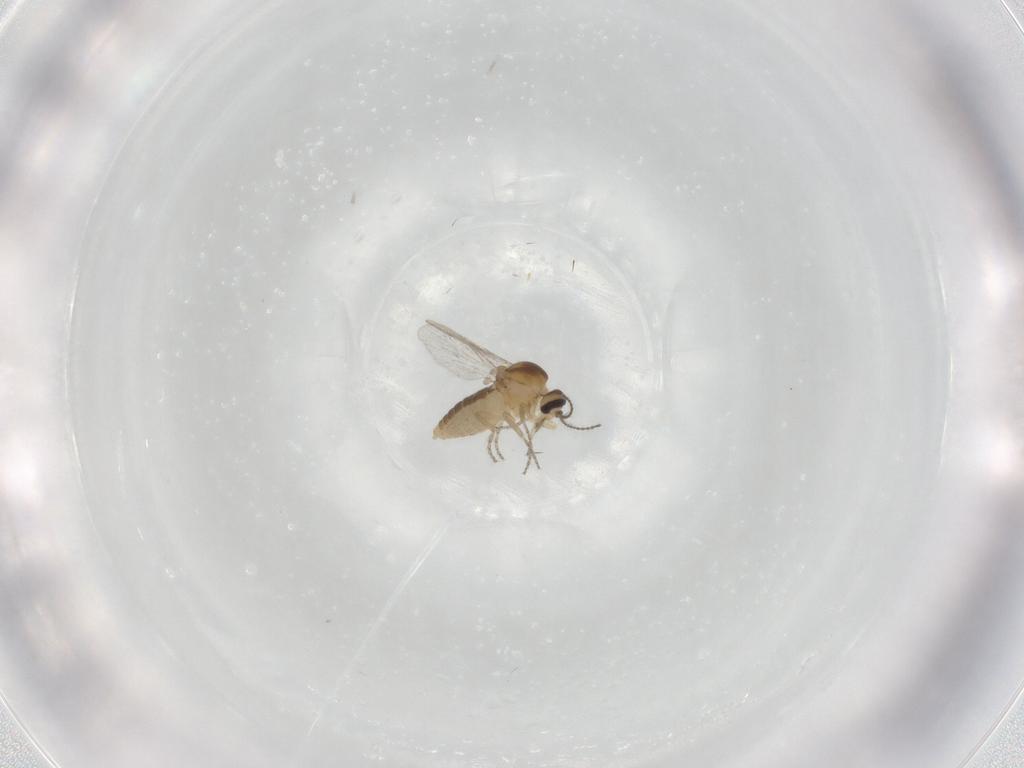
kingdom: Animalia
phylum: Arthropoda
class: Insecta
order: Diptera
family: Ceratopogonidae
